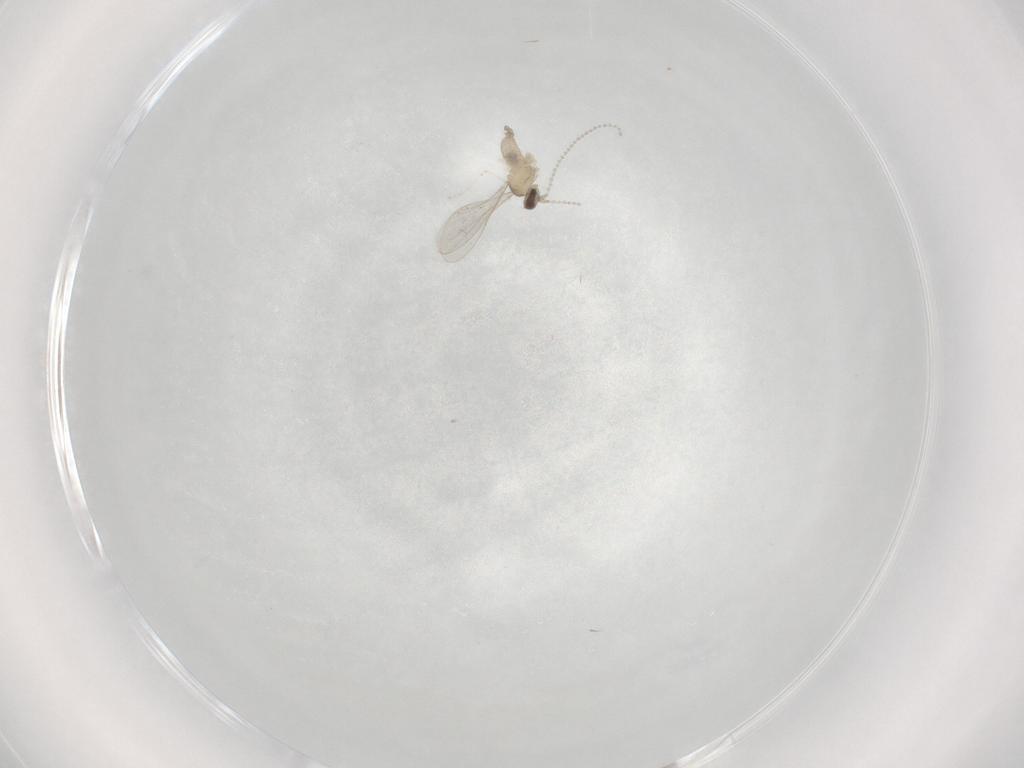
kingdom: Animalia
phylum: Arthropoda
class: Insecta
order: Diptera
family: Cecidomyiidae
